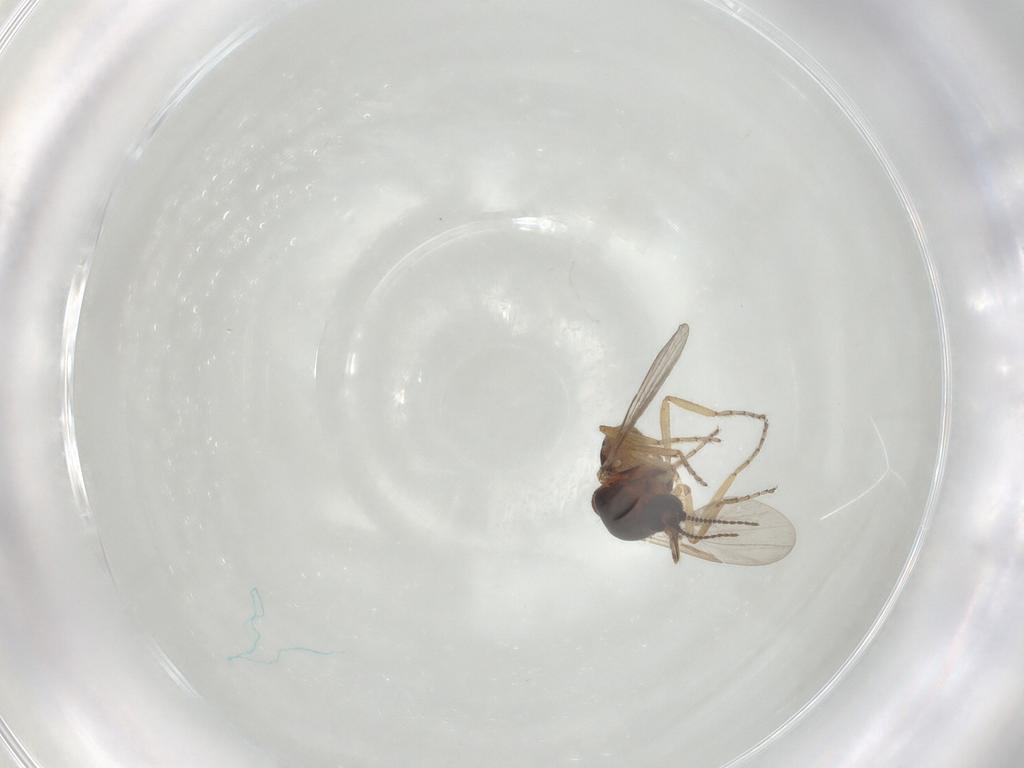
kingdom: Animalia
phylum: Arthropoda
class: Insecta
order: Diptera
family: Ceratopogonidae
